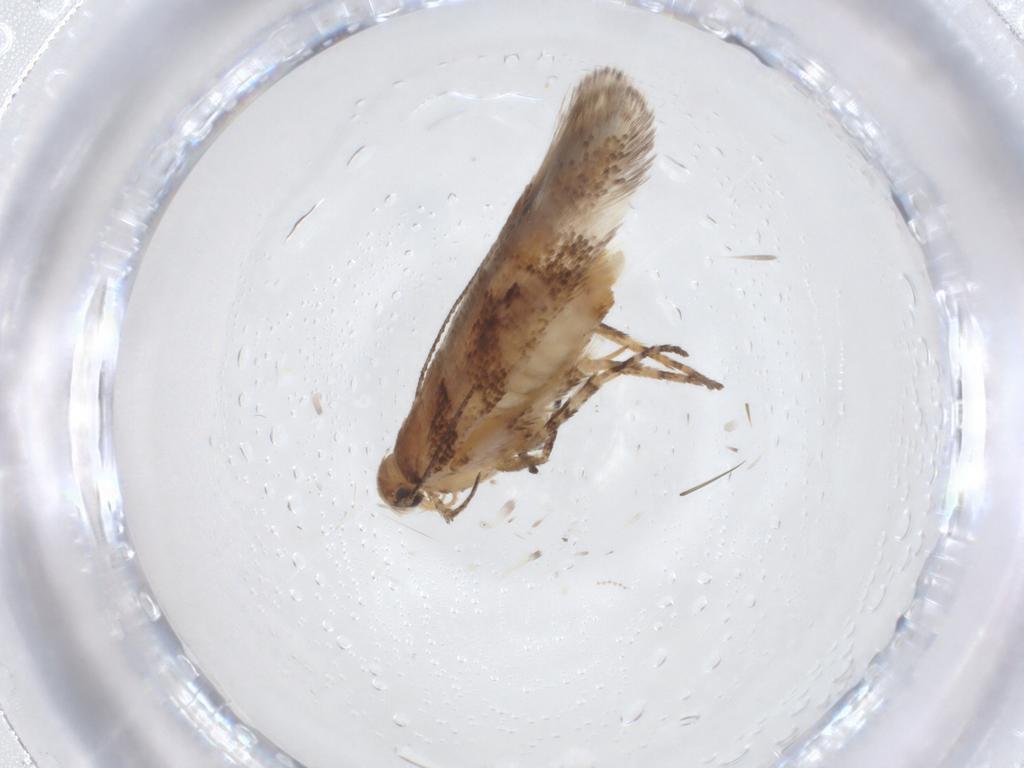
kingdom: Animalia
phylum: Arthropoda
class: Insecta
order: Lepidoptera
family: Gelechiidae
